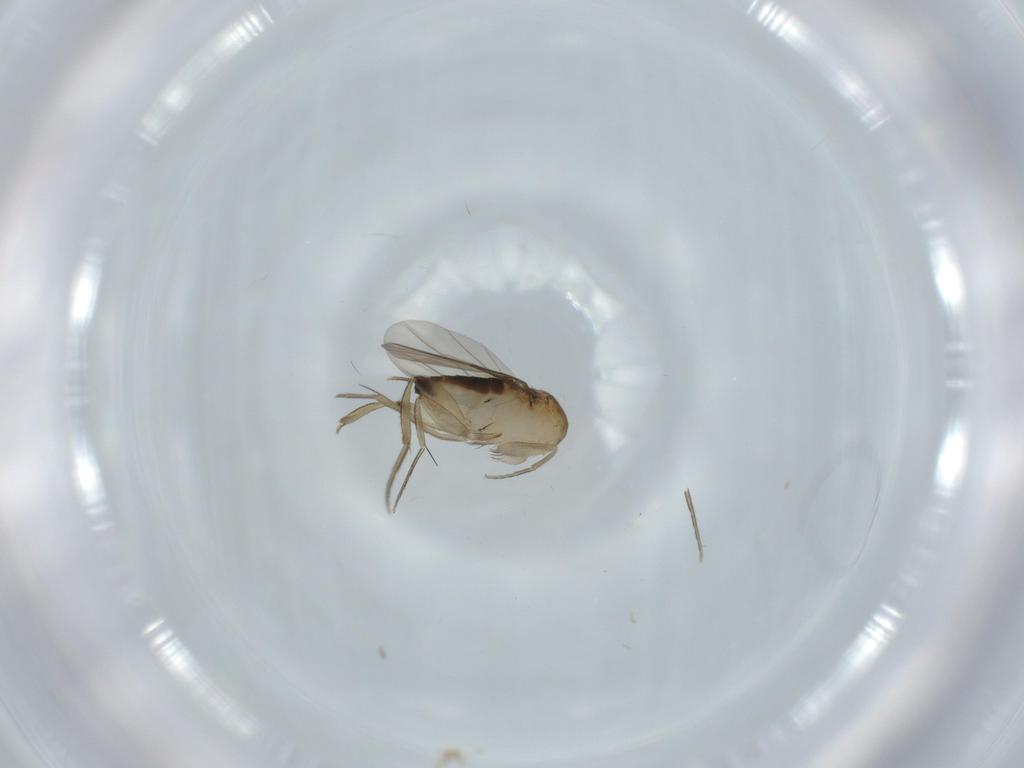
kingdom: Animalia
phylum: Arthropoda
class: Insecta
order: Diptera
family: Phoridae
